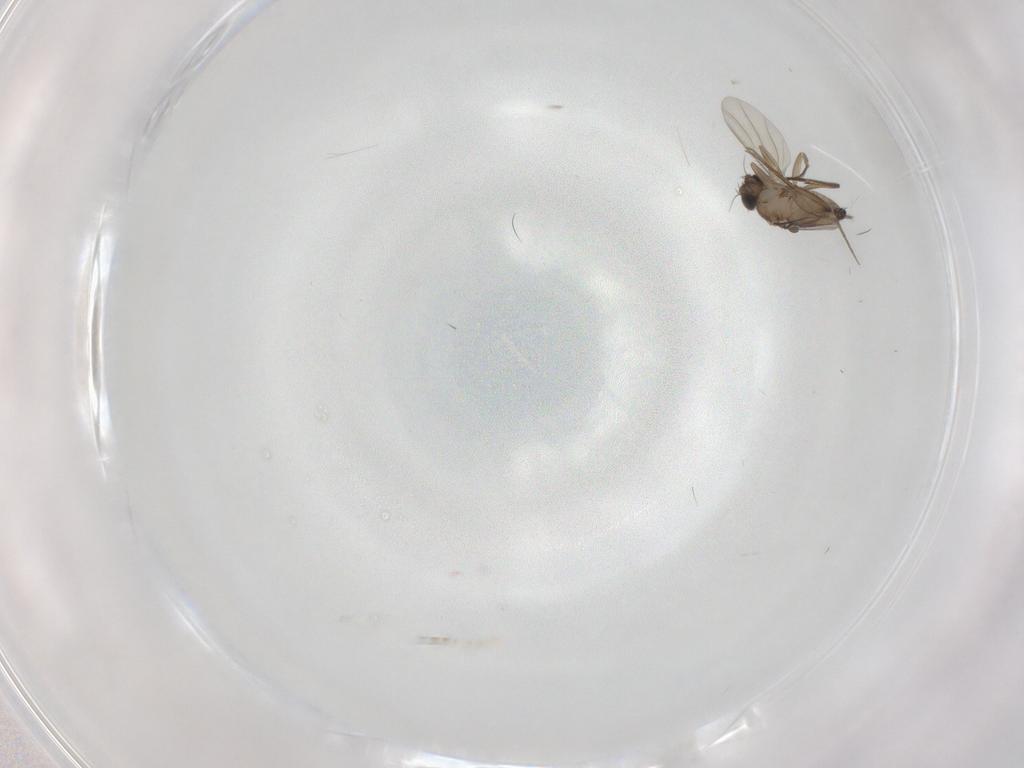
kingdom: Animalia
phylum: Arthropoda
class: Insecta
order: Diptera
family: Phoridae
